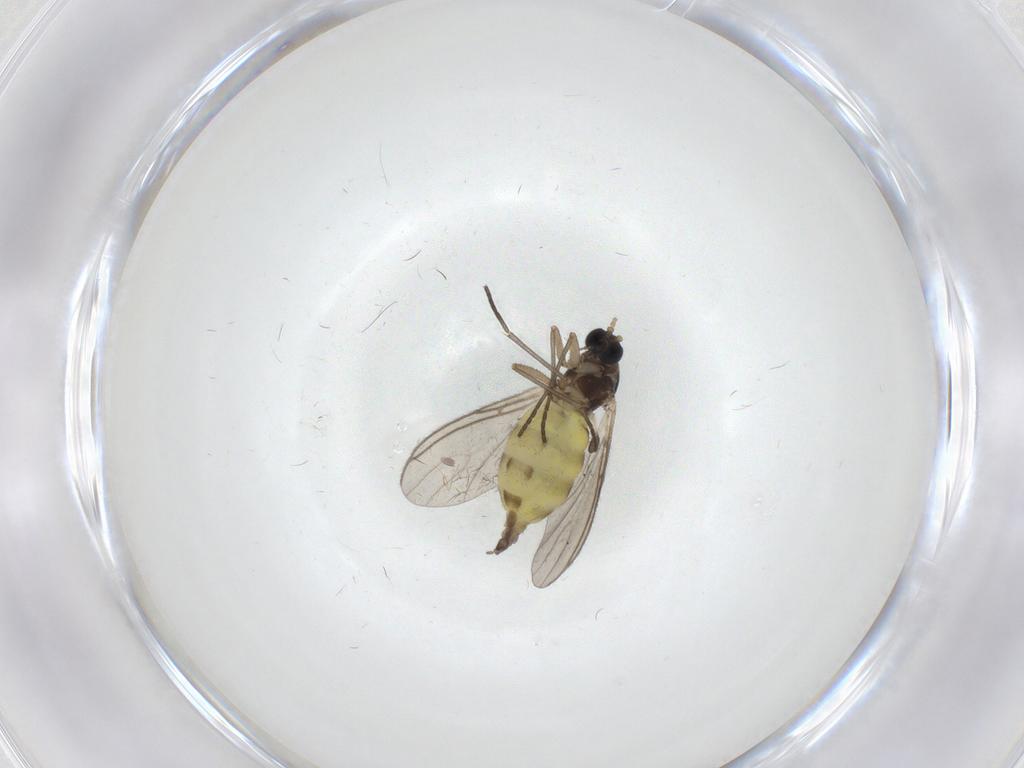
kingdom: Animalia
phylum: Arthropoda
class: Insecta
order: Diptera
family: Sciaridae
